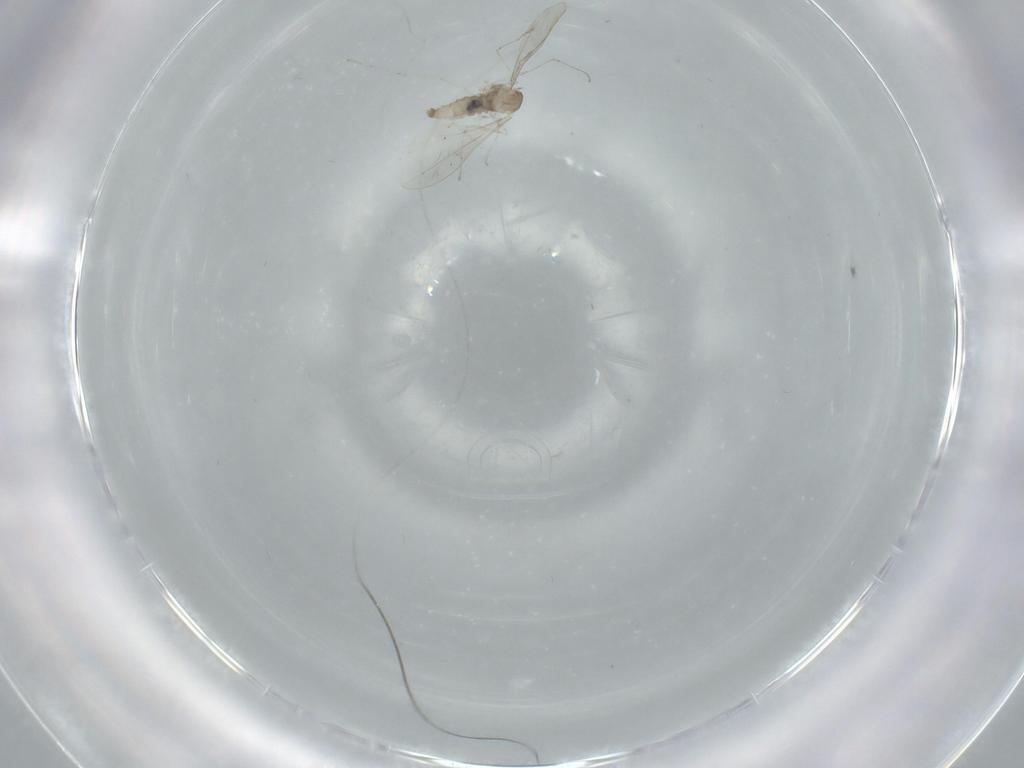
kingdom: Animalia
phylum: Arthropoda
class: Insecta
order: Diptera
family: Cecidomyiidae
